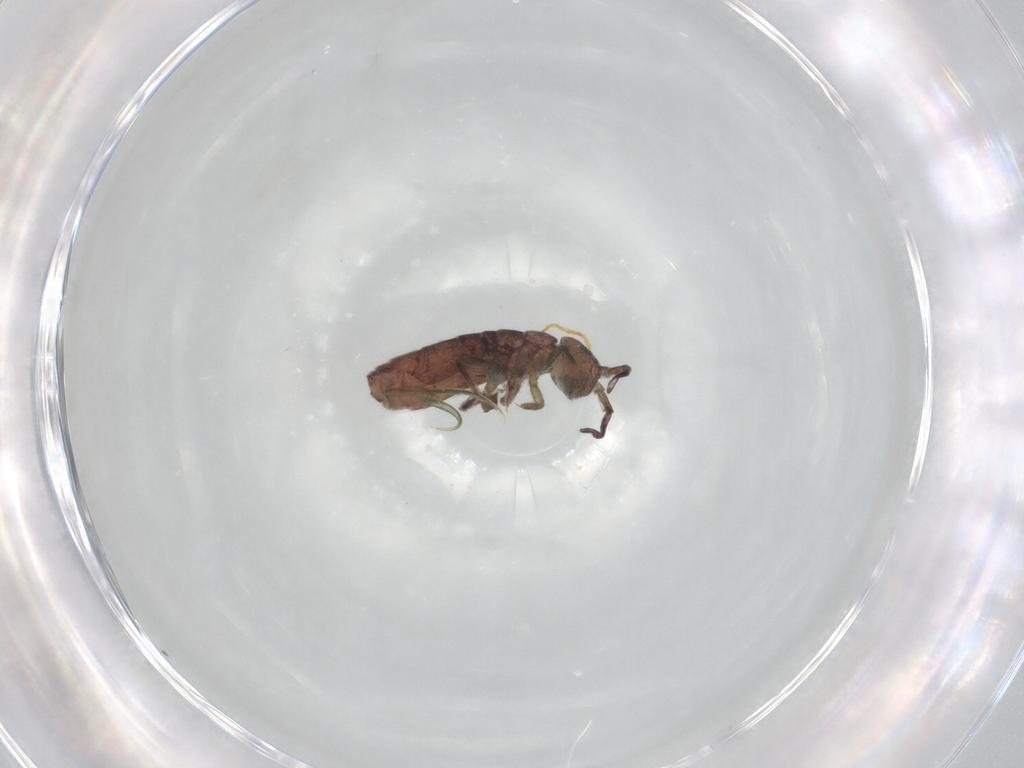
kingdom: Animalia
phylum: Arthropoda
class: Collembola
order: Entomobryomorpha
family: Isotomidae
